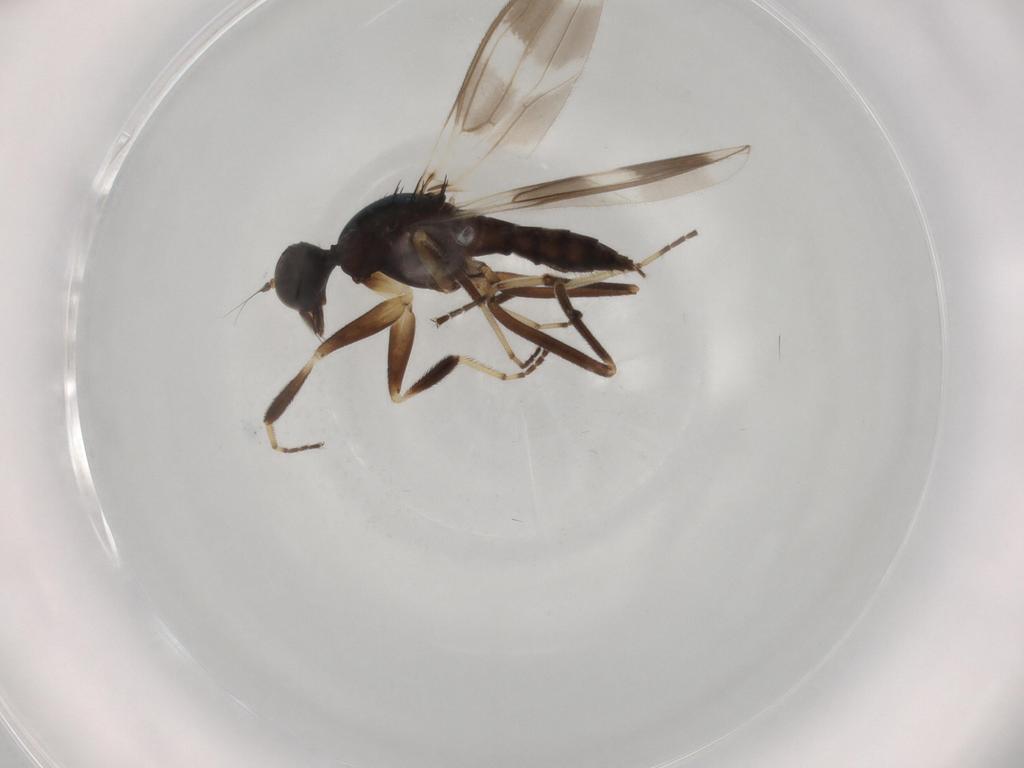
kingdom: Animalia
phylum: Arthropoda
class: Insecta
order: Diptera
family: Hybotidae
